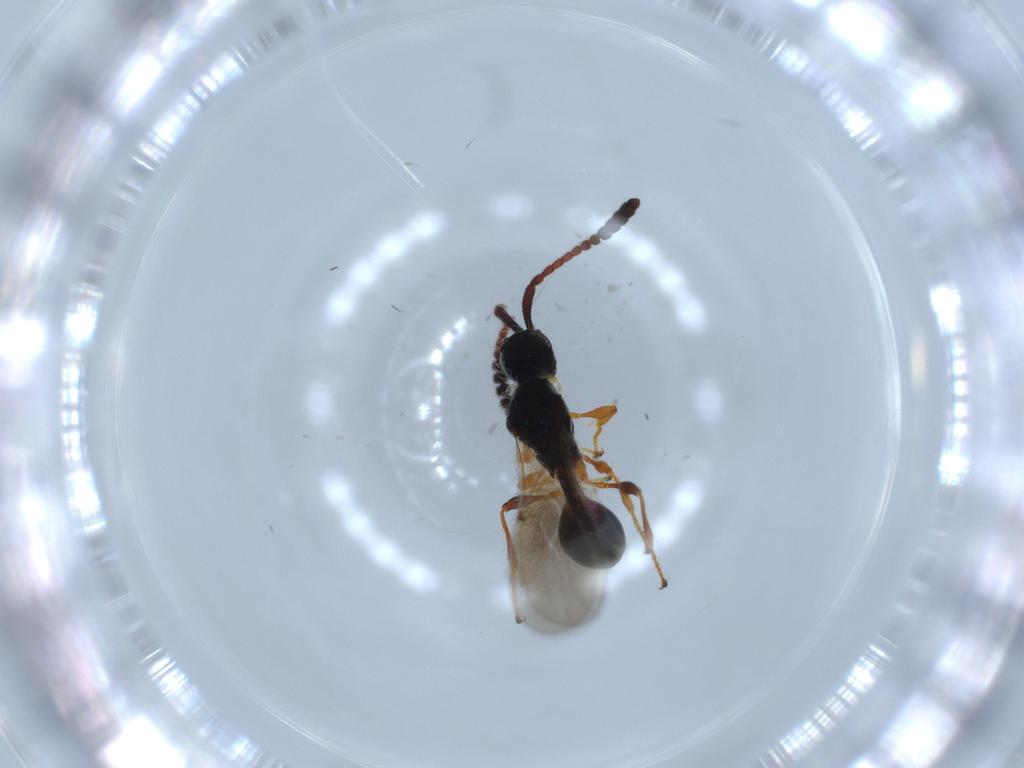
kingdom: Animalia
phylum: Arthropoda
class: Insecta
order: Hymenoptera
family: Diapriidae
